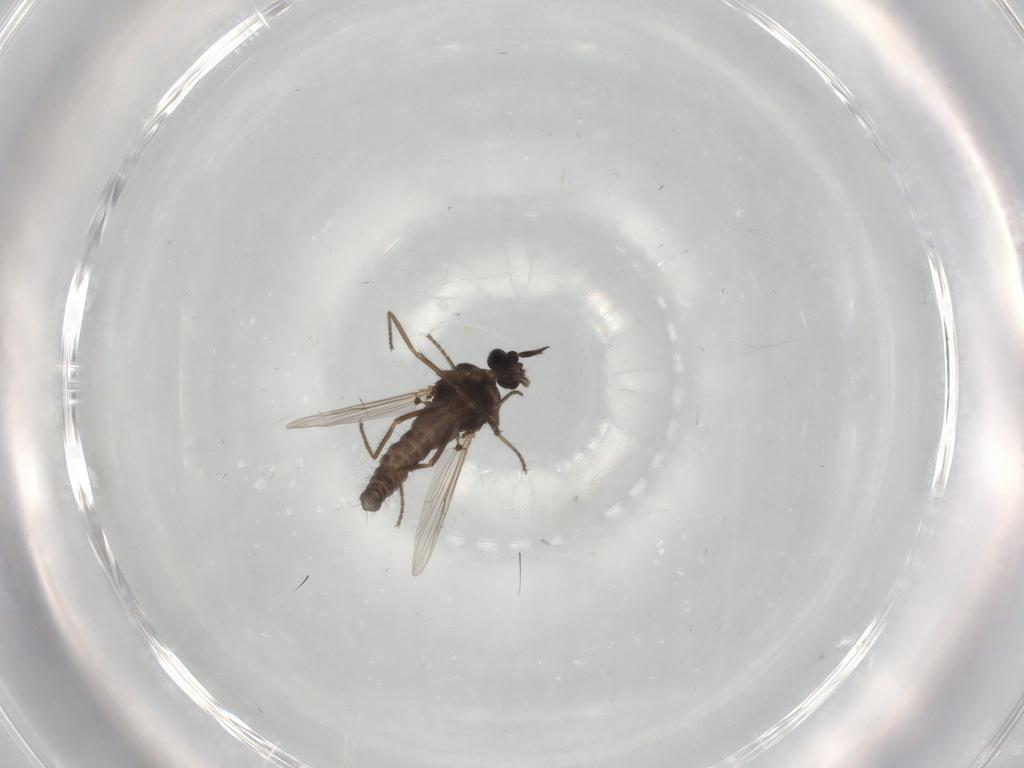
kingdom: Animalia
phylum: Arthropoda
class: Insecta
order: Diptera
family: Ceratopogonidae
